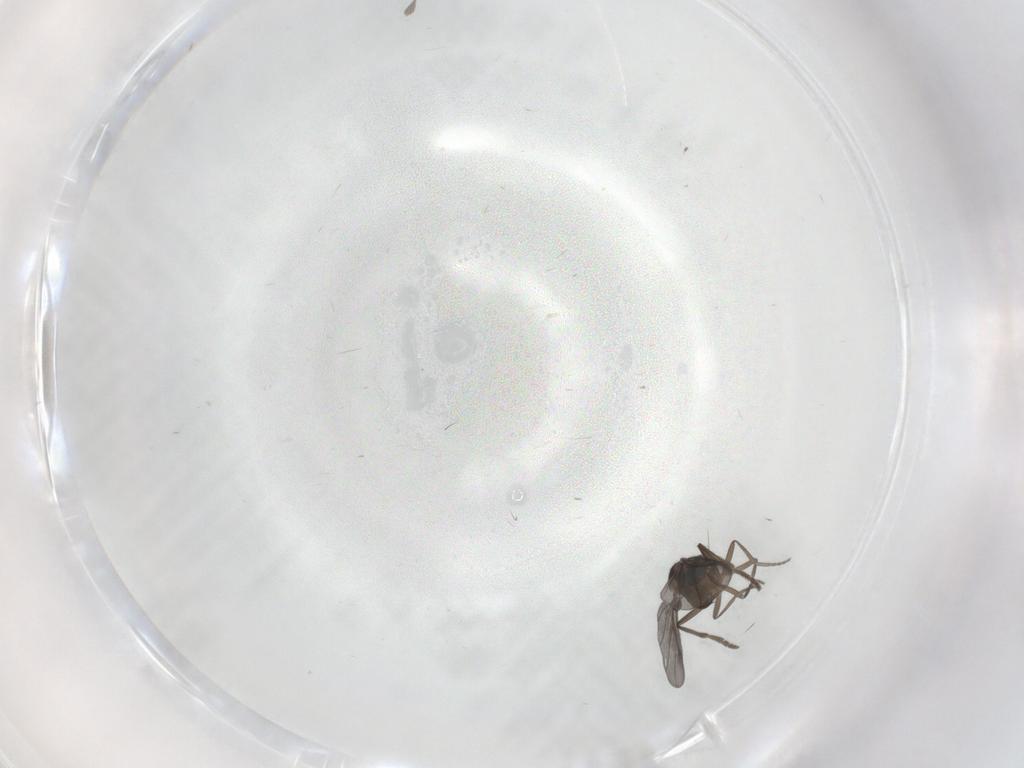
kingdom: Animalia
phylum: Arthropoda
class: Insecta
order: Diptera
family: Phoridae
